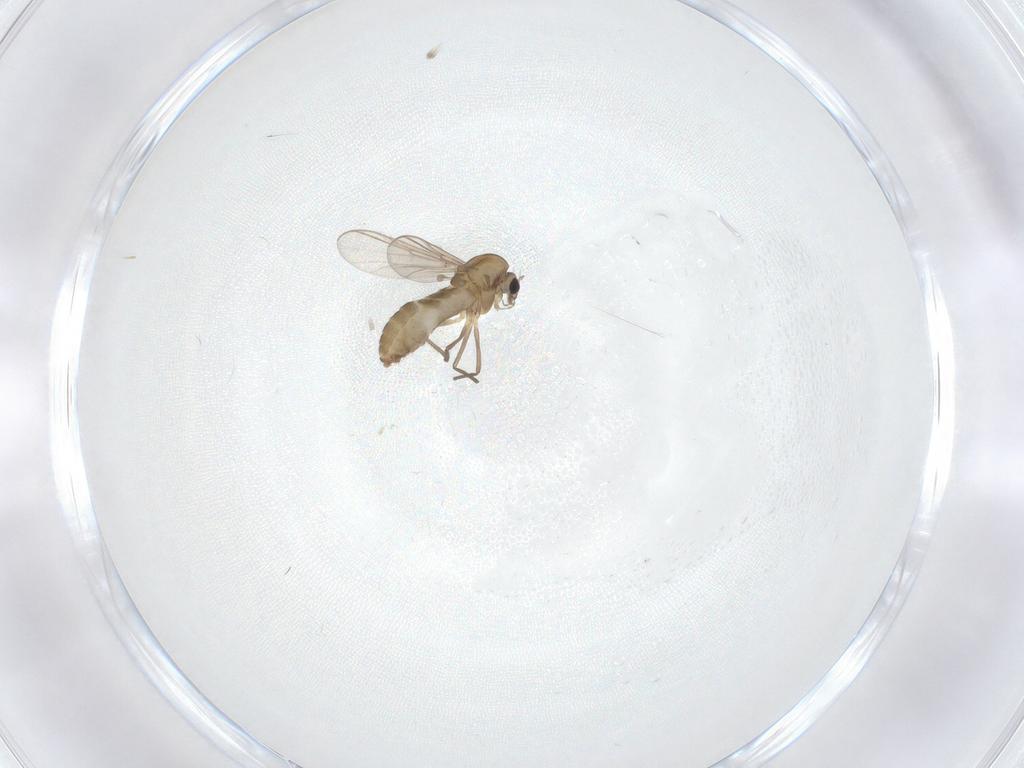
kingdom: Animalia
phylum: Arthropoda
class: Insecta
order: Diptera
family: Chironomidae
